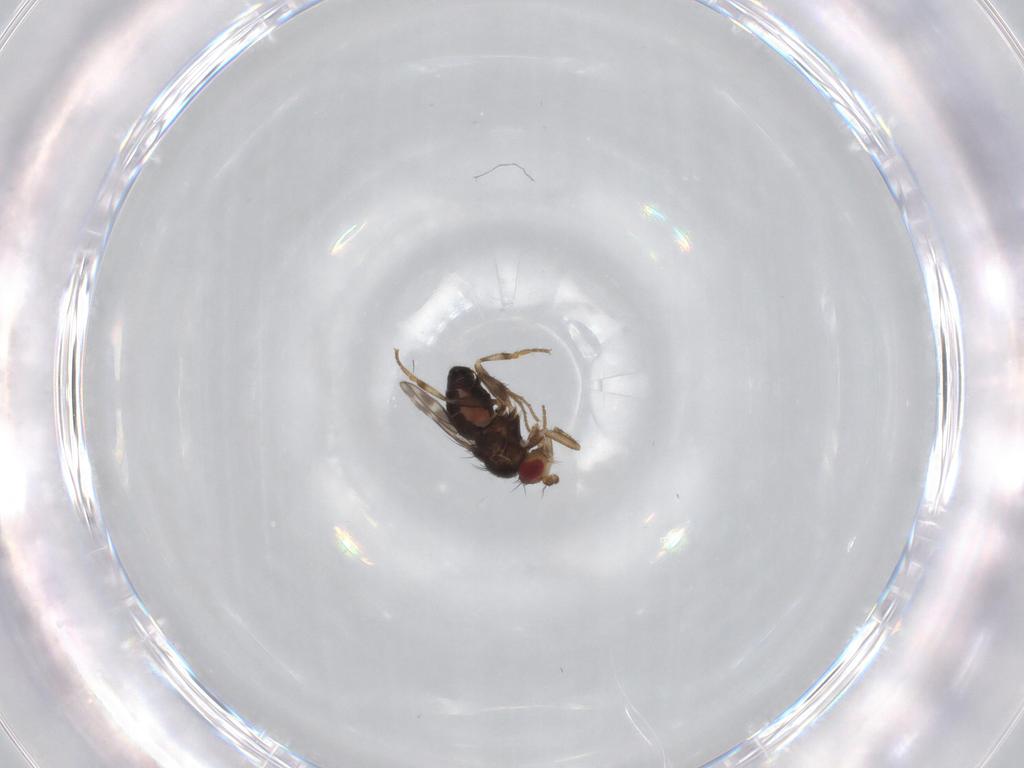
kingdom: Animalia
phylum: Arthropoda
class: Insecta
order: Diptera
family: Sphaeroceridae
